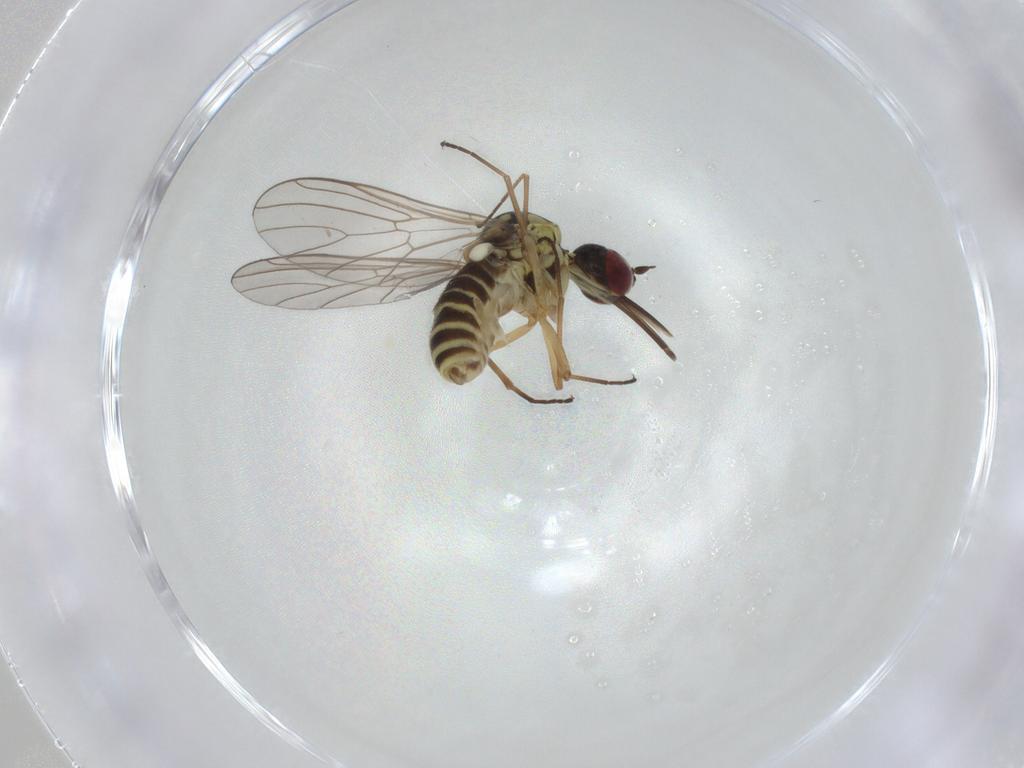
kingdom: Animalia
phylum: Arthropoda
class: Insecta
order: Diptera
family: Mythicomyiidae
